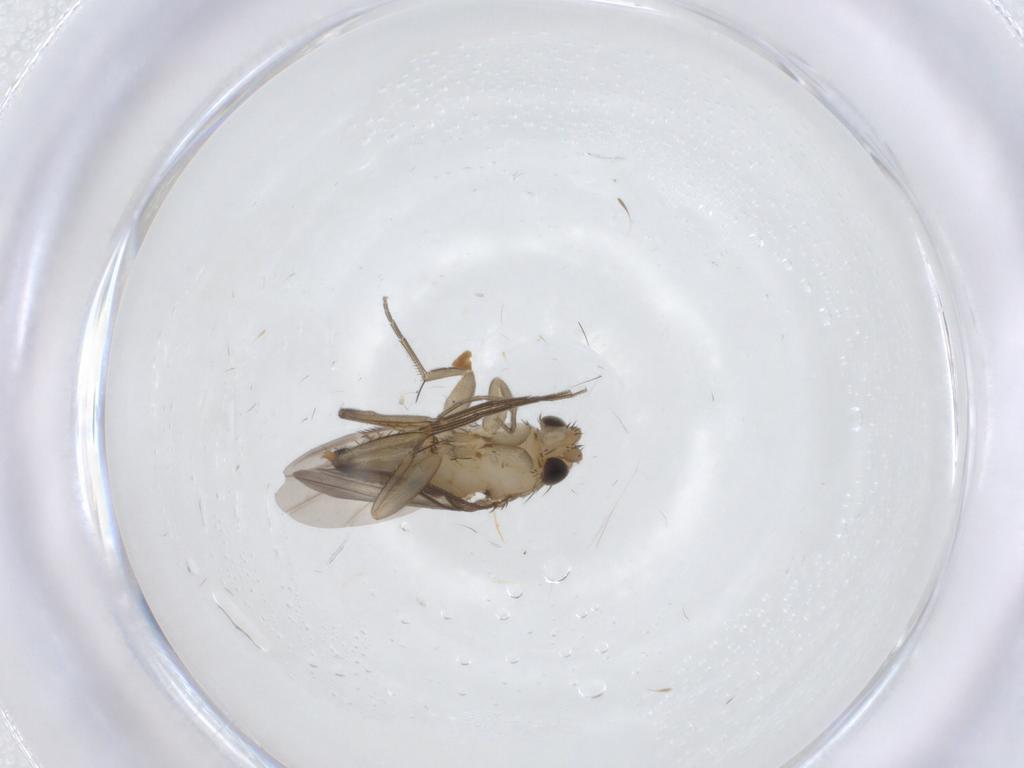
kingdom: Animalia
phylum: Arthropoda
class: Insecta
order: Diptera
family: Phoridae
